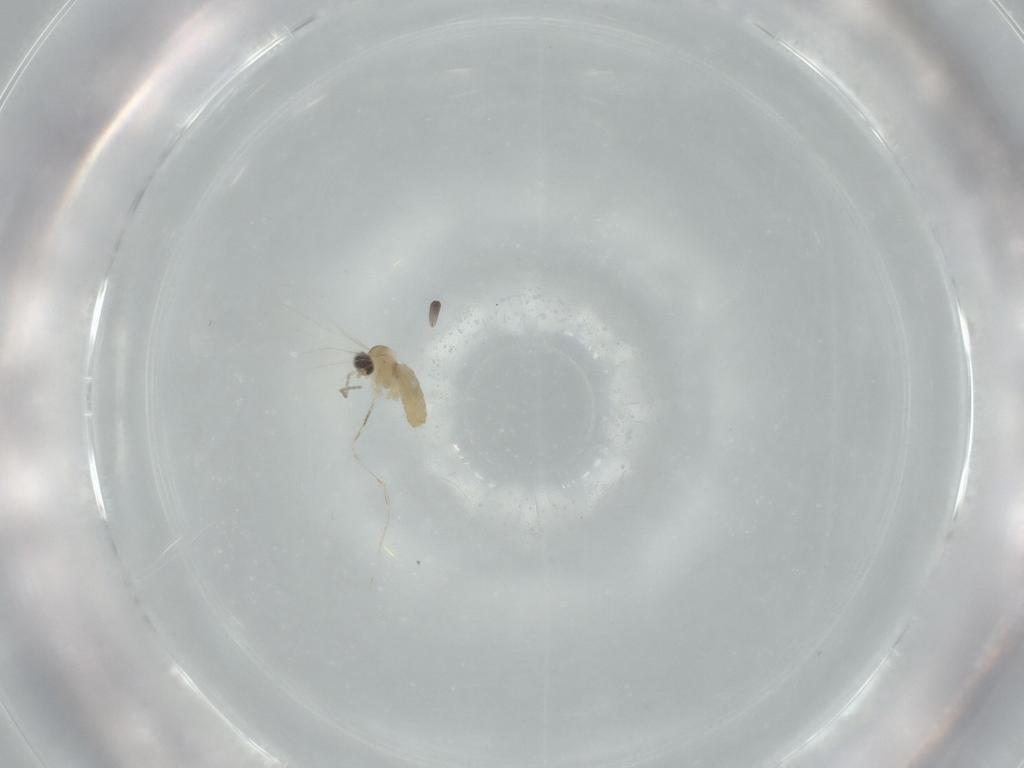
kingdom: Animalia
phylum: Arthropoda
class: Insecta
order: Diptera
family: Cecidomyiidae
